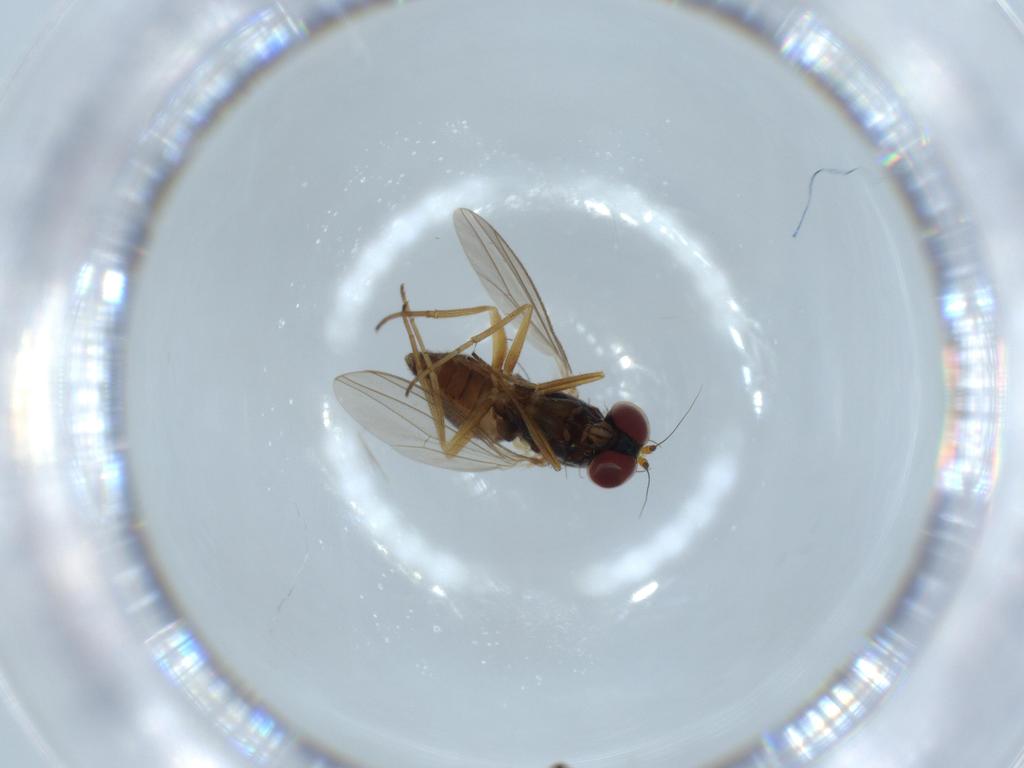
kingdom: Animalia
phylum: Arthropoda
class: Insecta
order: Diptera
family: Dolichopodidae
